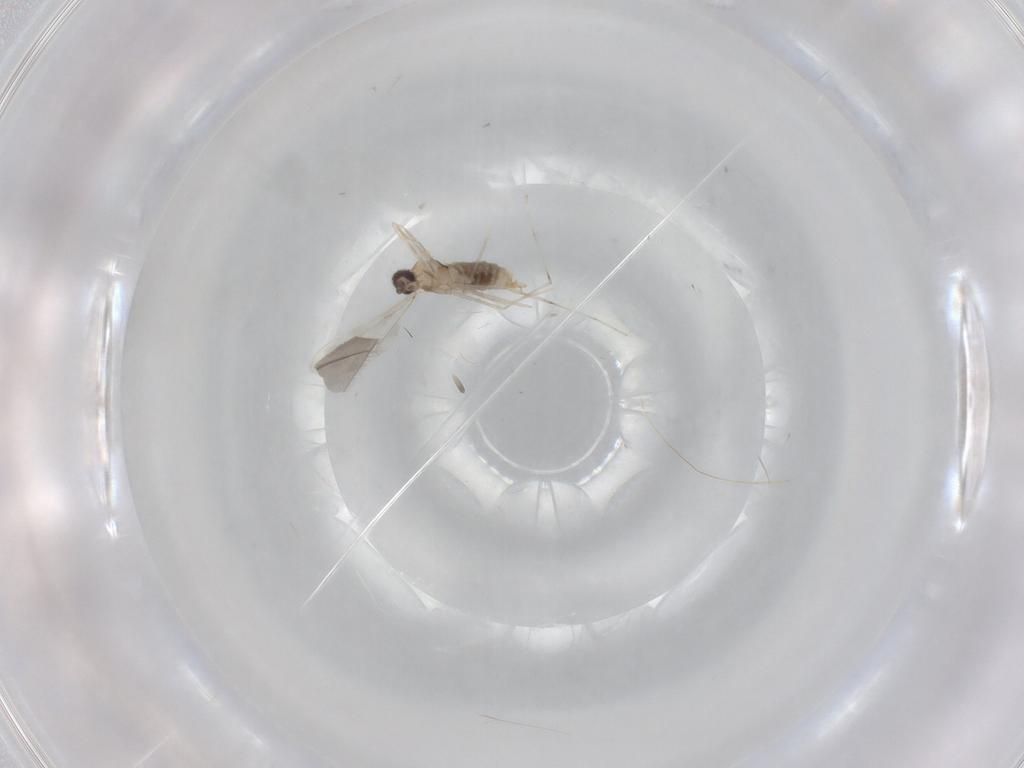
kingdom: Animalia
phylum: Arthropoda
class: Insecta
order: Diptera
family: Cecidomyiidae
